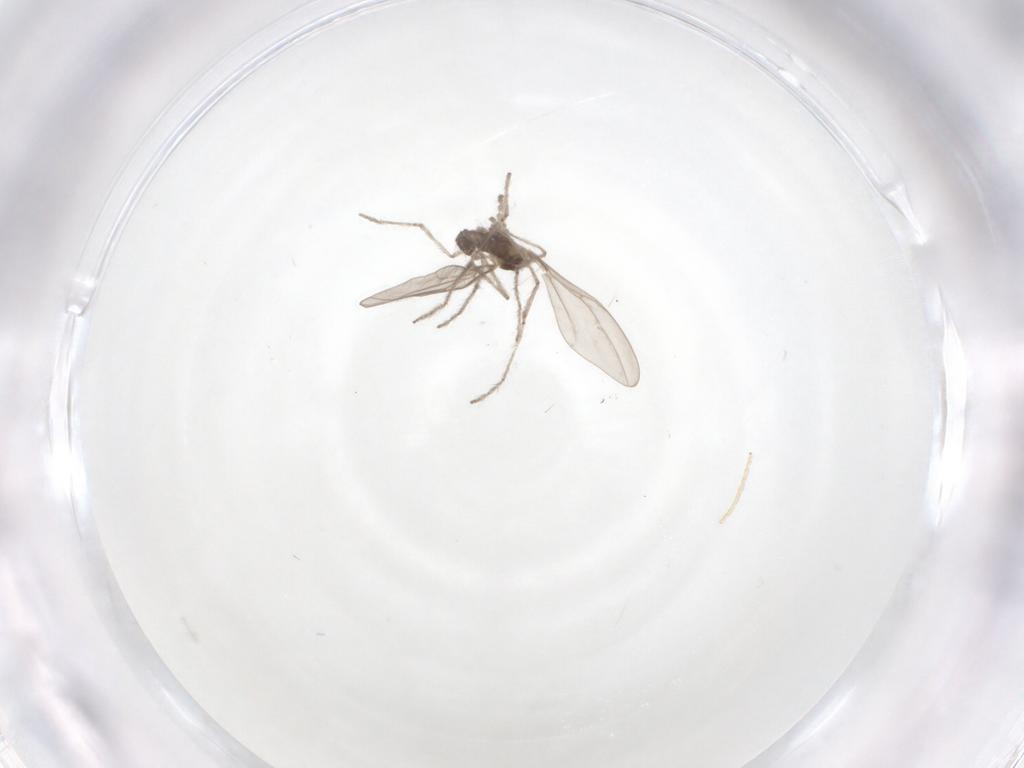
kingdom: Animalia
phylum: Arthropoda
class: Insecta
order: Diptera
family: Cecidomyiidae
